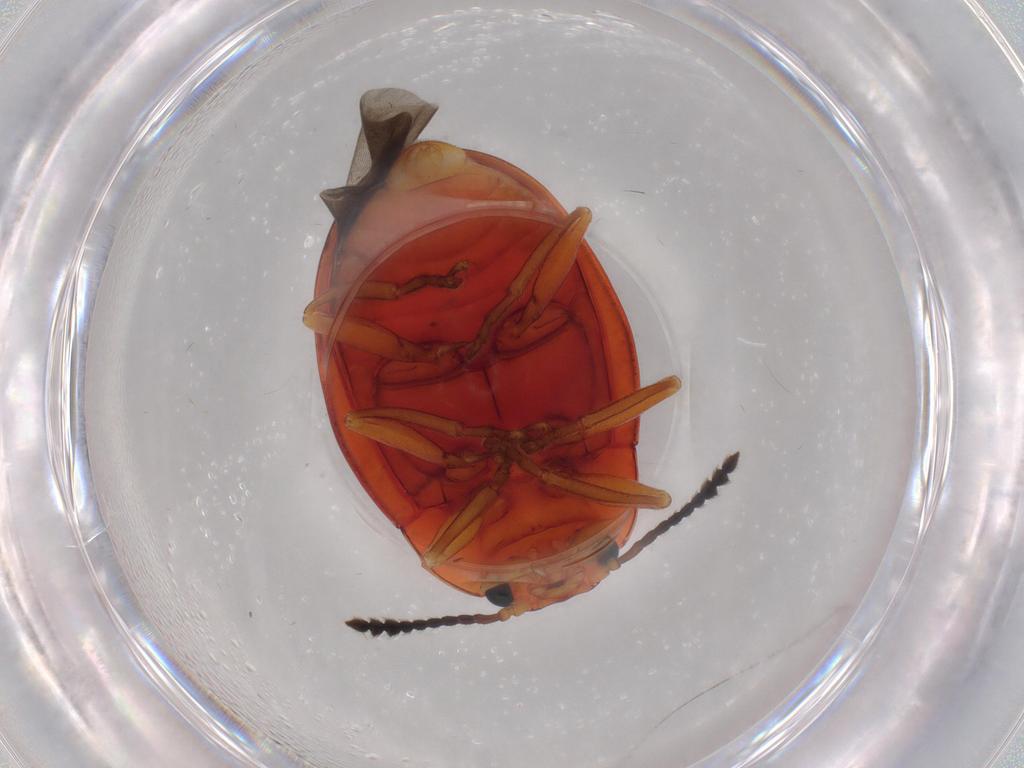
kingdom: Animalia
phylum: Arthropoda
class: Insecta
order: Coleoptera
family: Erotylidae
